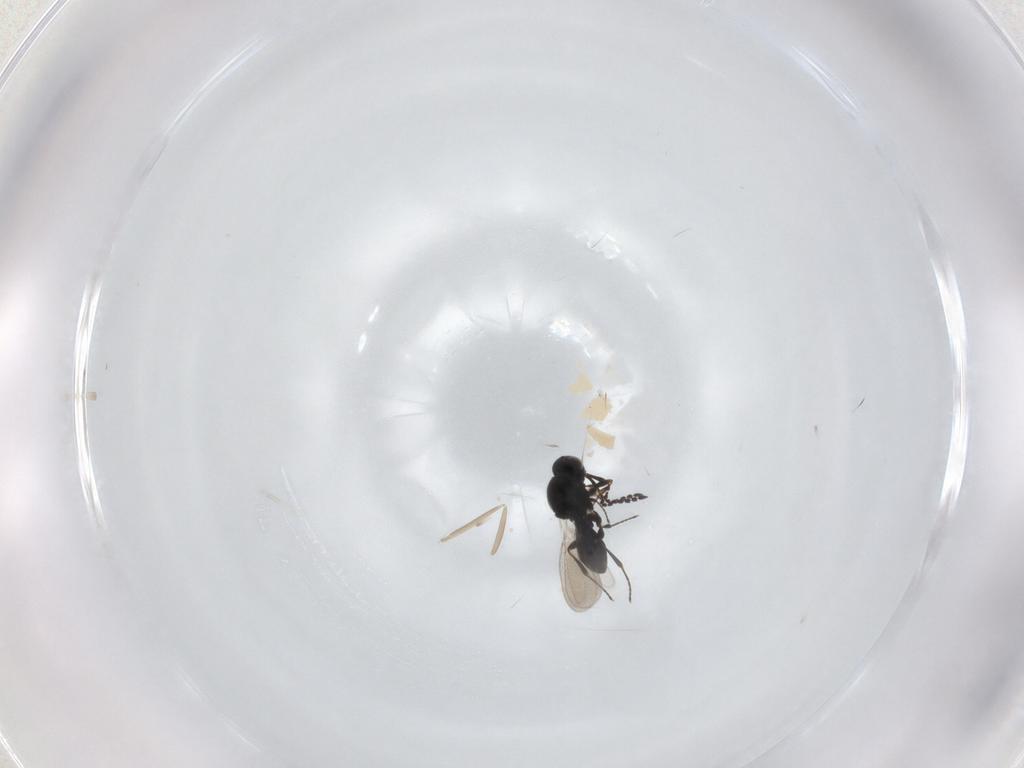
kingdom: Animalia
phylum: Arthropoda
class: Insecta
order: Hymenoptera
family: Platygastridae
